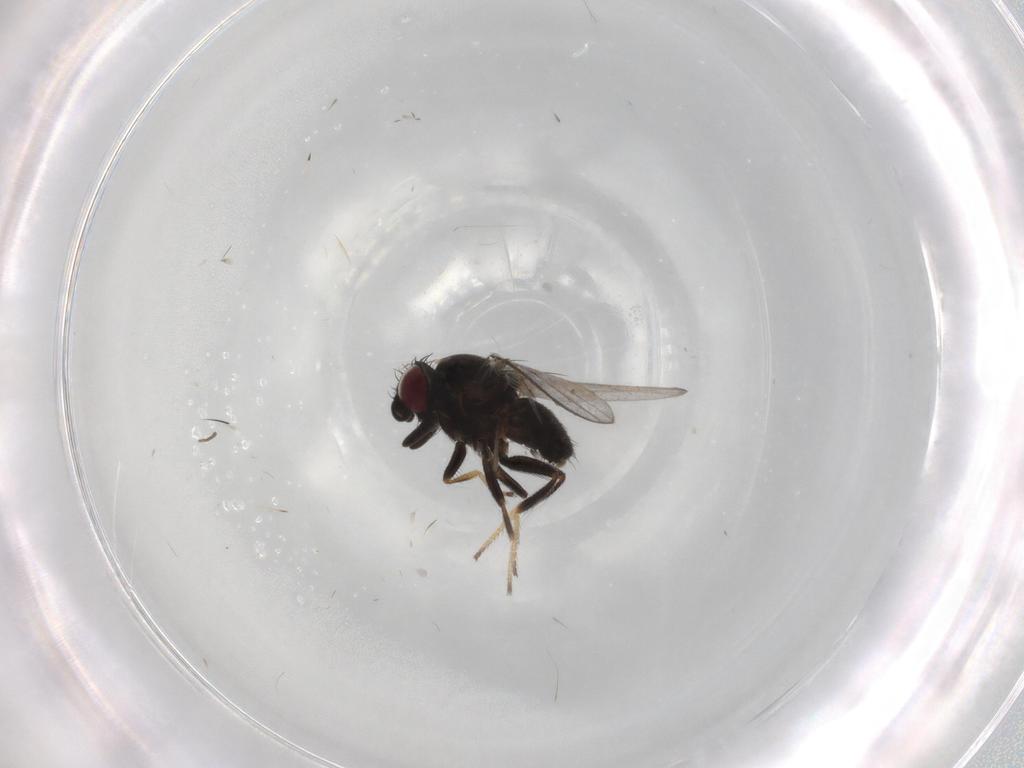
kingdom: Animalia
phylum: Arthropoda
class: Insecta
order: Diptera
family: Milichiidae
